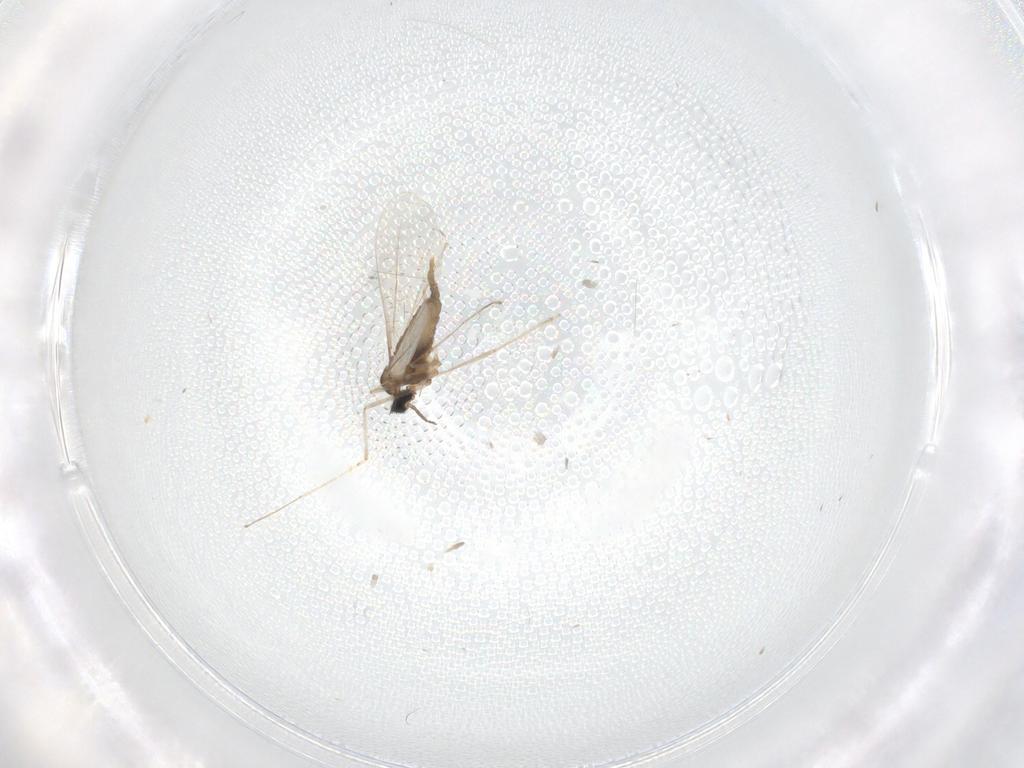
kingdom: Animalia
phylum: Arthropoda
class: Insecta
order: Diptera
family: Cecidomyiidae
